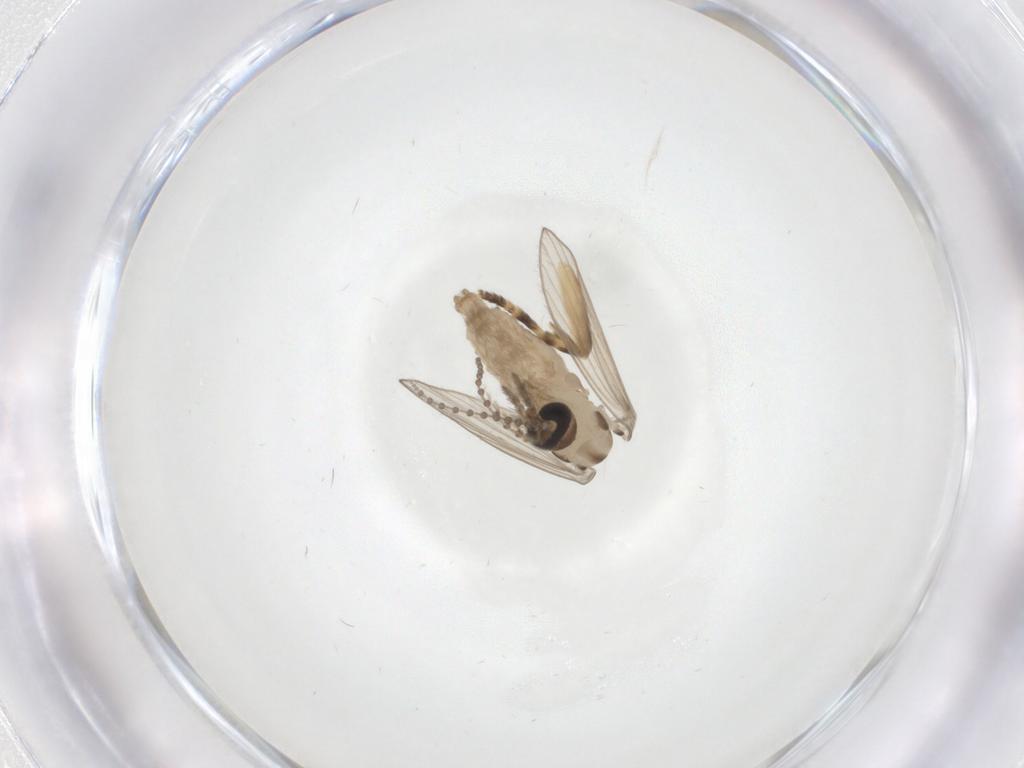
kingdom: Animalia
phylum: Arthropoda
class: Insecta
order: Diptera
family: Psychodidae
